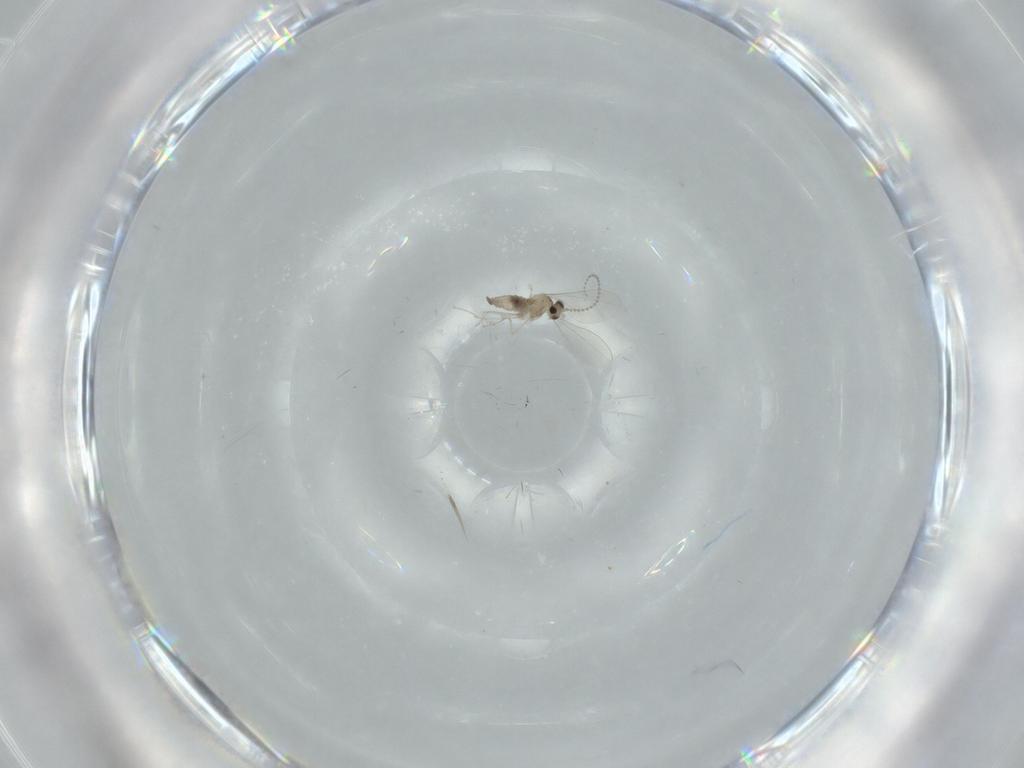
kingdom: Animalia
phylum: Arthropoda
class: Insecta
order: Diptera
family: Cecidomyiidae
